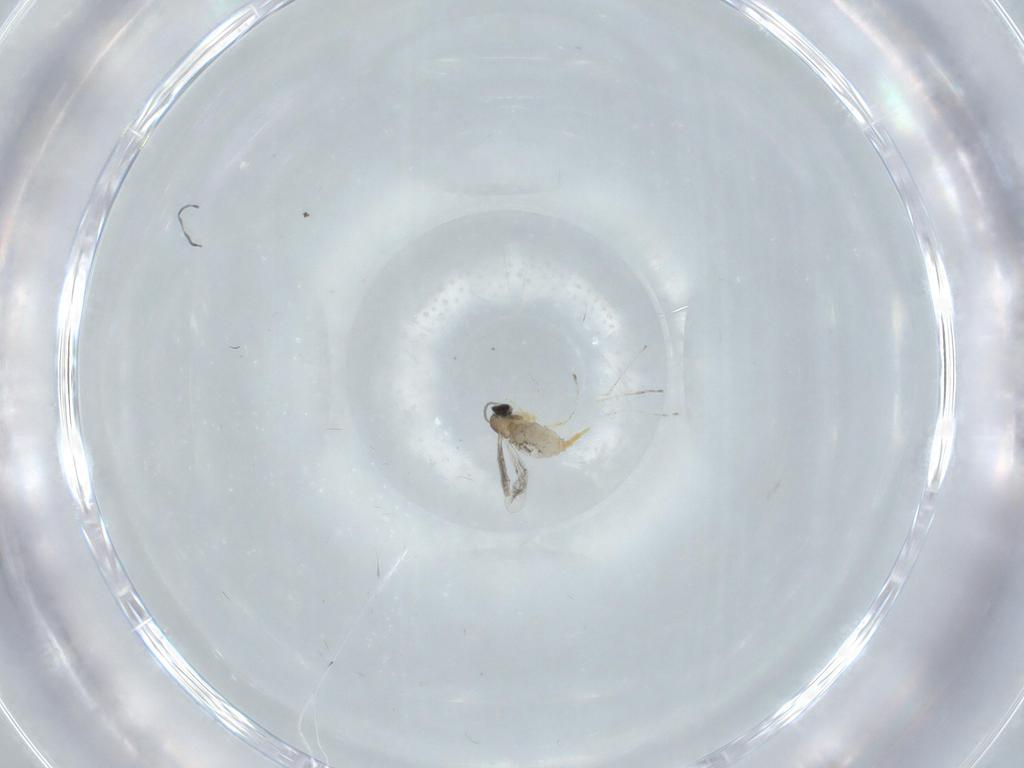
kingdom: Animalia
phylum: Arthropoda
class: Insecta
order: Diptera
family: Cecidomyiidae
